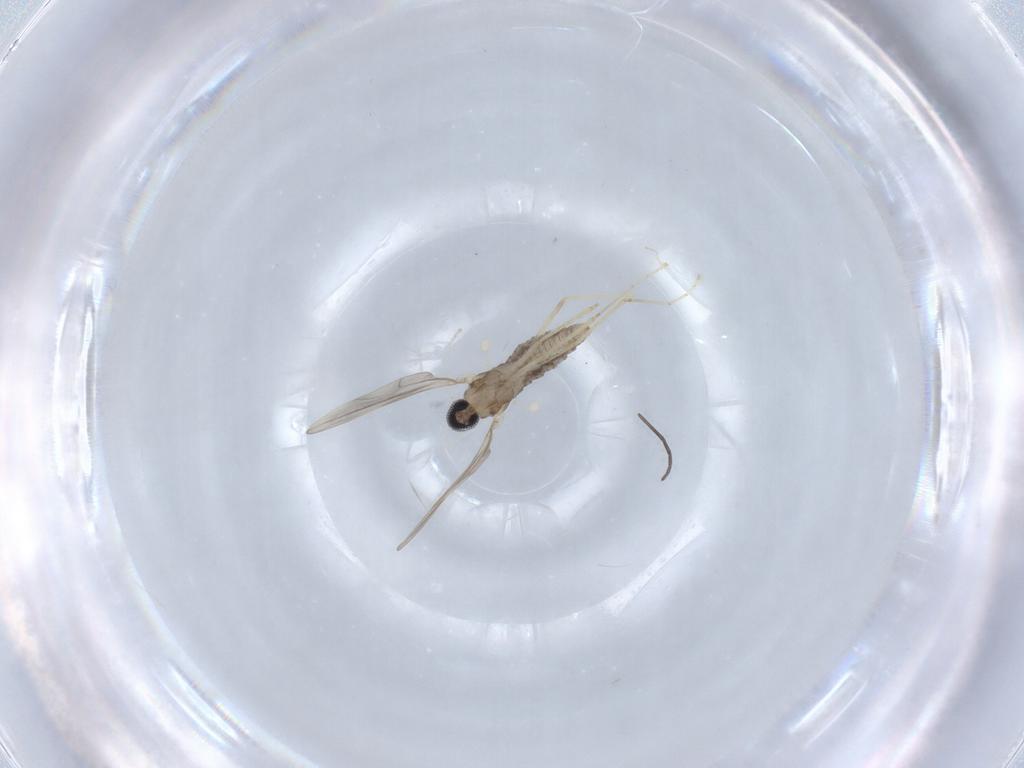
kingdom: Animalia
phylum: Arthropoda
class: Insecta
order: Diptera
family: Cecidomyiidae
